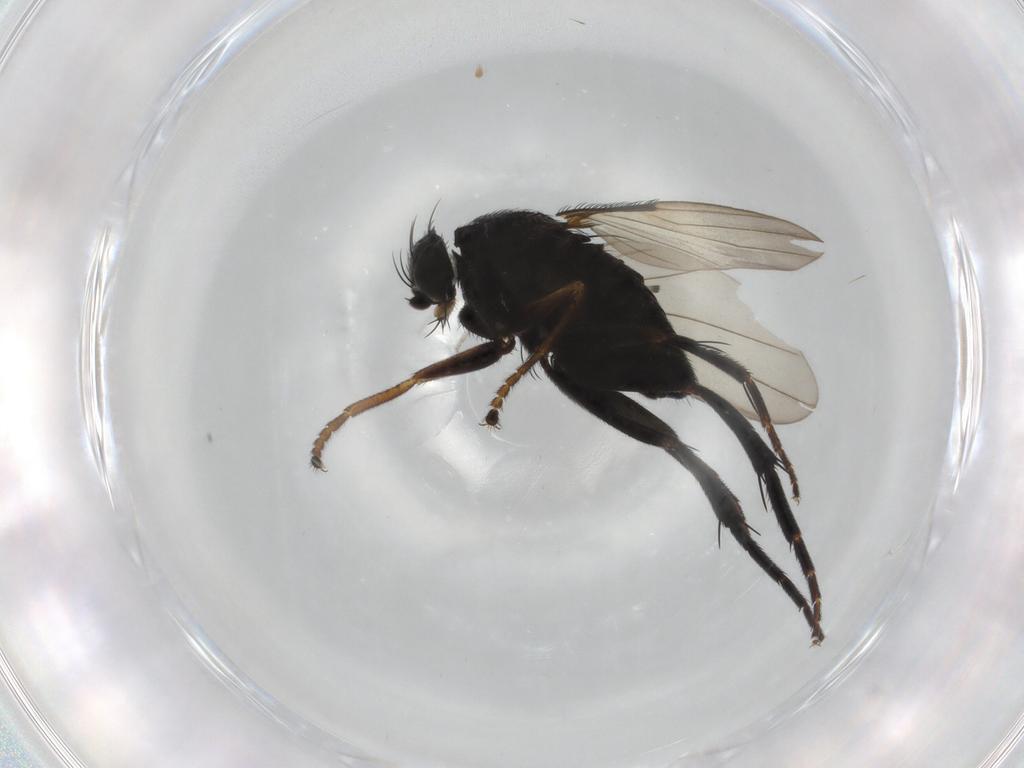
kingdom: Animalia
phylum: Arthropoda
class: Insecta
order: Diptera
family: Phoridae
